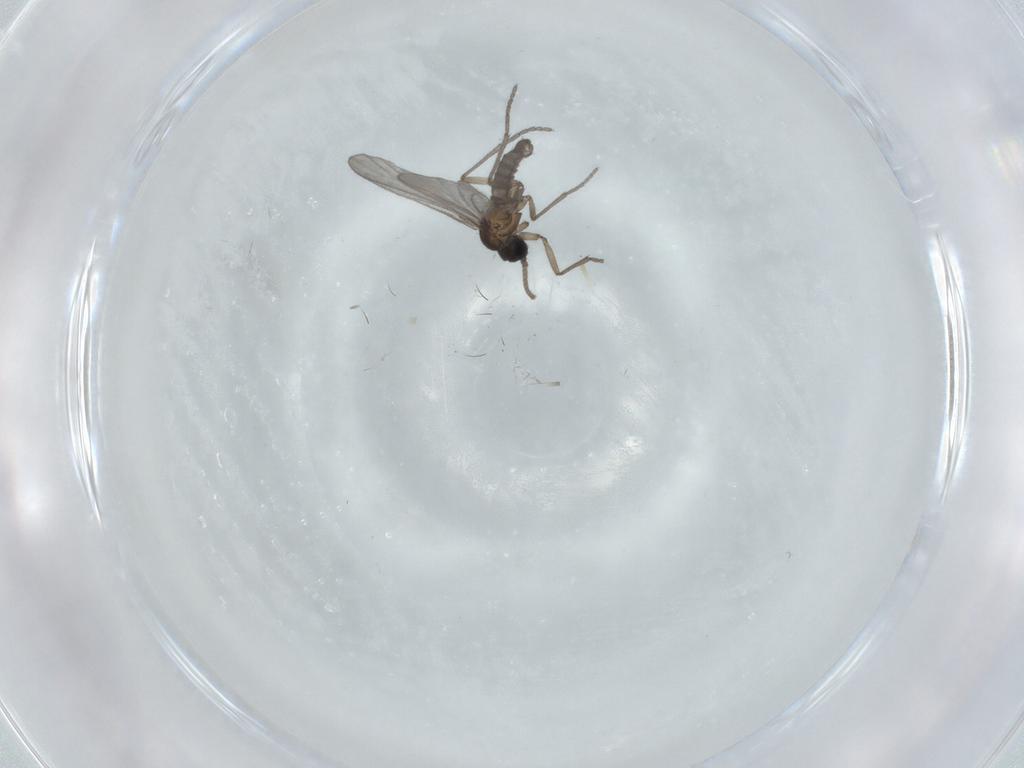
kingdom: Animalia
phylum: Arthropoda
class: Insecta
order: Diptera
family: Sciaridae
